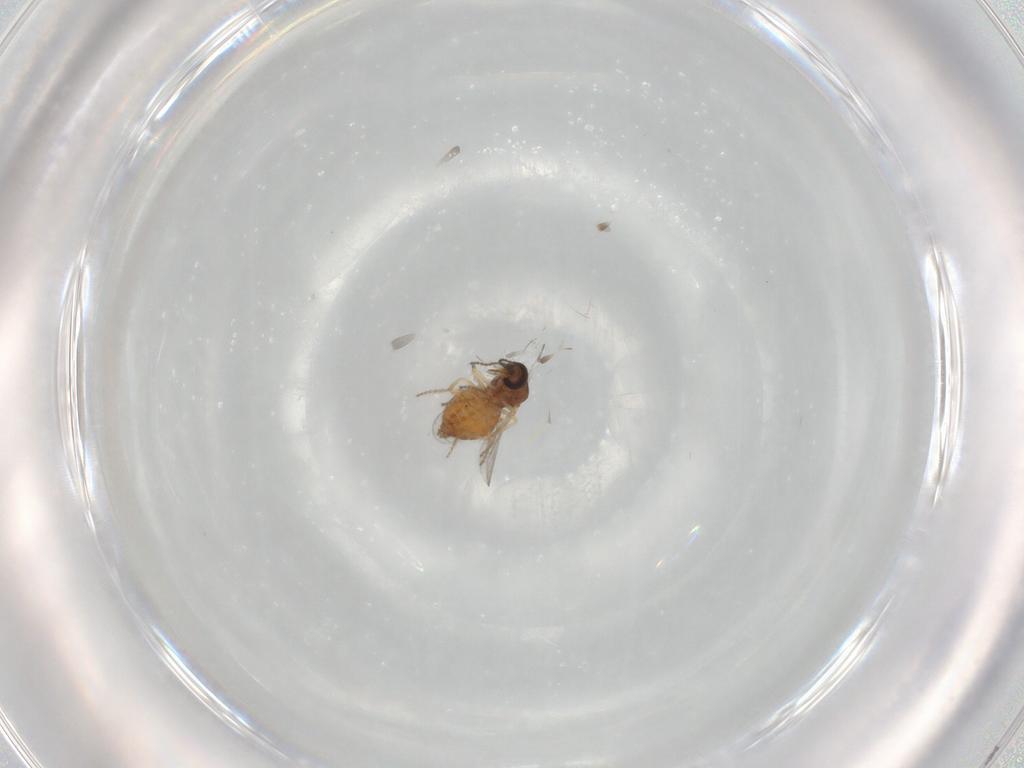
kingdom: Animalia
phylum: Arthropoda
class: Insecta
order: Diptera
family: Ceratopogonidae
